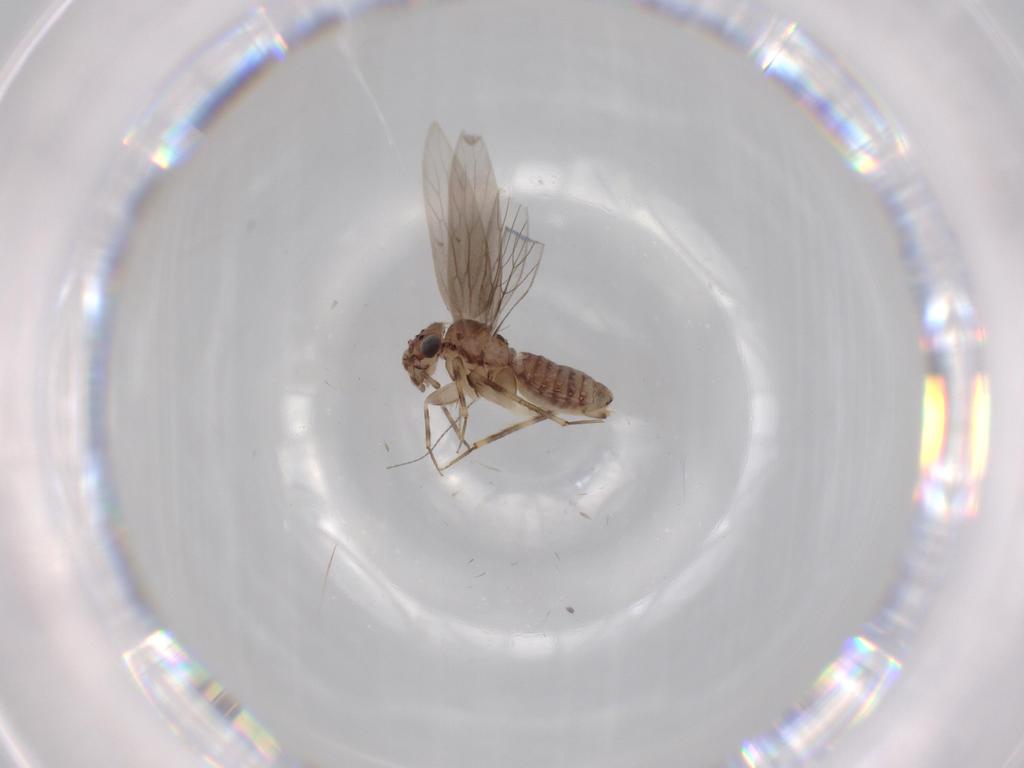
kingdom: Animalia
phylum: Arthropoda
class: Insecta
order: Psocodea
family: Lepidopsocidae
